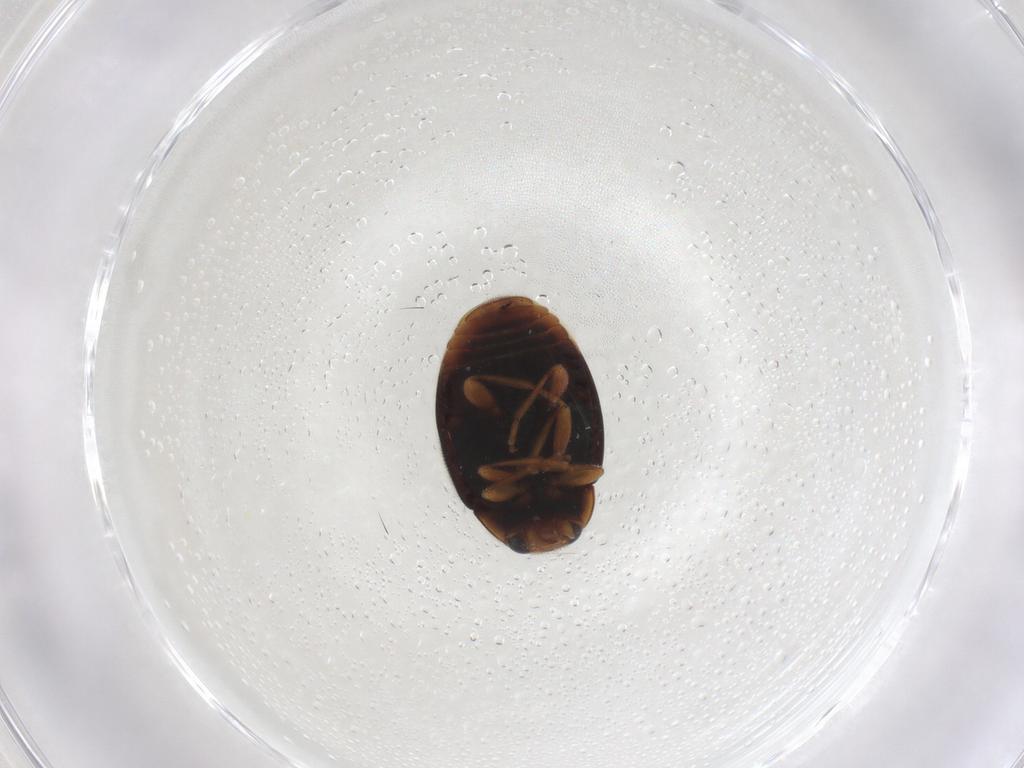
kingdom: Animalia
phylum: Arthropoda
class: Insecta
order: Coleoptera
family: Coccinellidae
